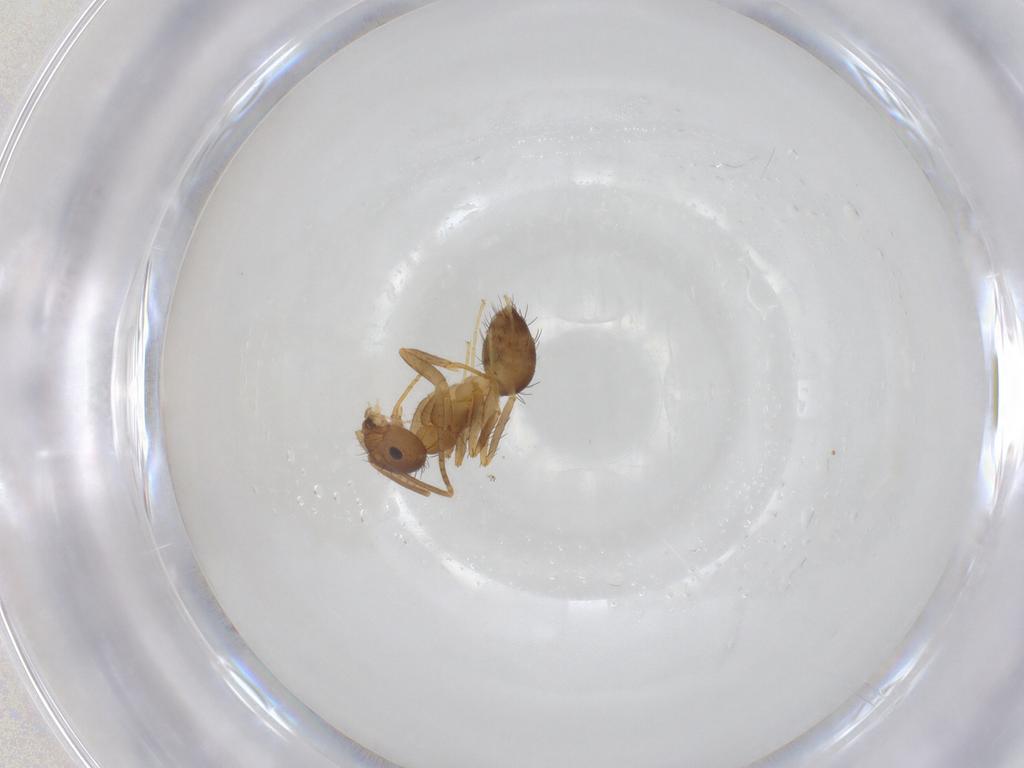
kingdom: Animalia
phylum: Arthropoda
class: Insecta
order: Hymenoptera
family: Formicidae
